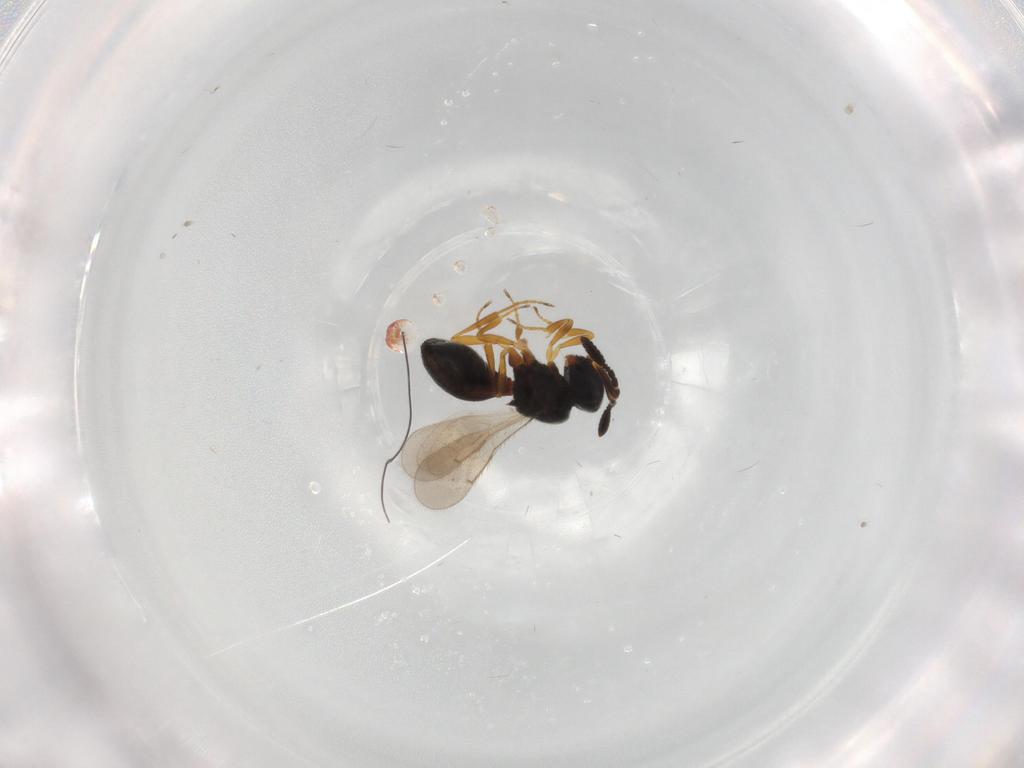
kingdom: Animalia
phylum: Arthropoda
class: Insecta
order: Hymenoptera
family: Scelionidae
